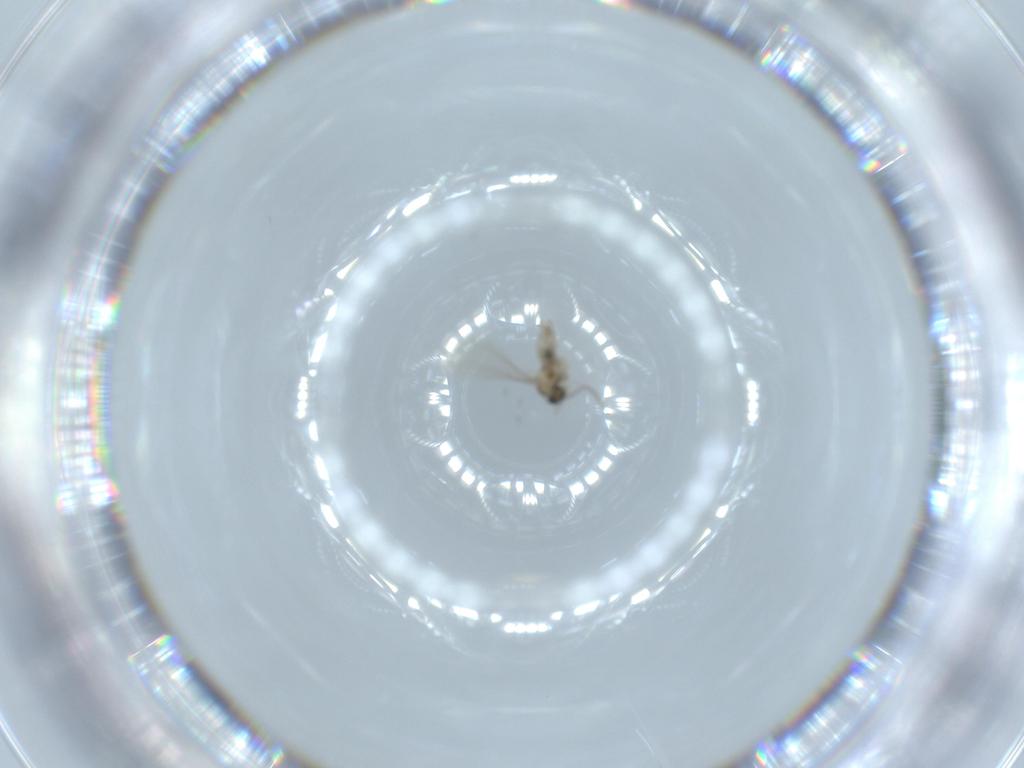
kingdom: Animalia
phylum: Arthropoda
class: Insecta
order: Diptera
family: Cecidomyiidae
